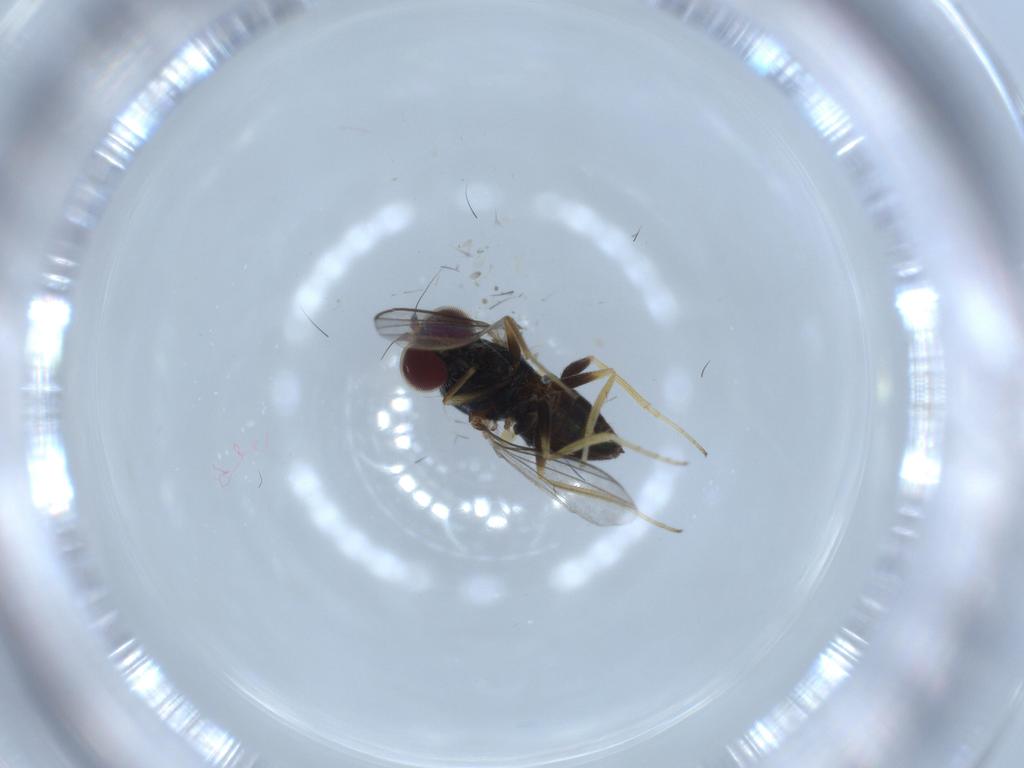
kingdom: Animalia
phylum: Arthropoda
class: Insecta
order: Diptera
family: Dolichopodidae
